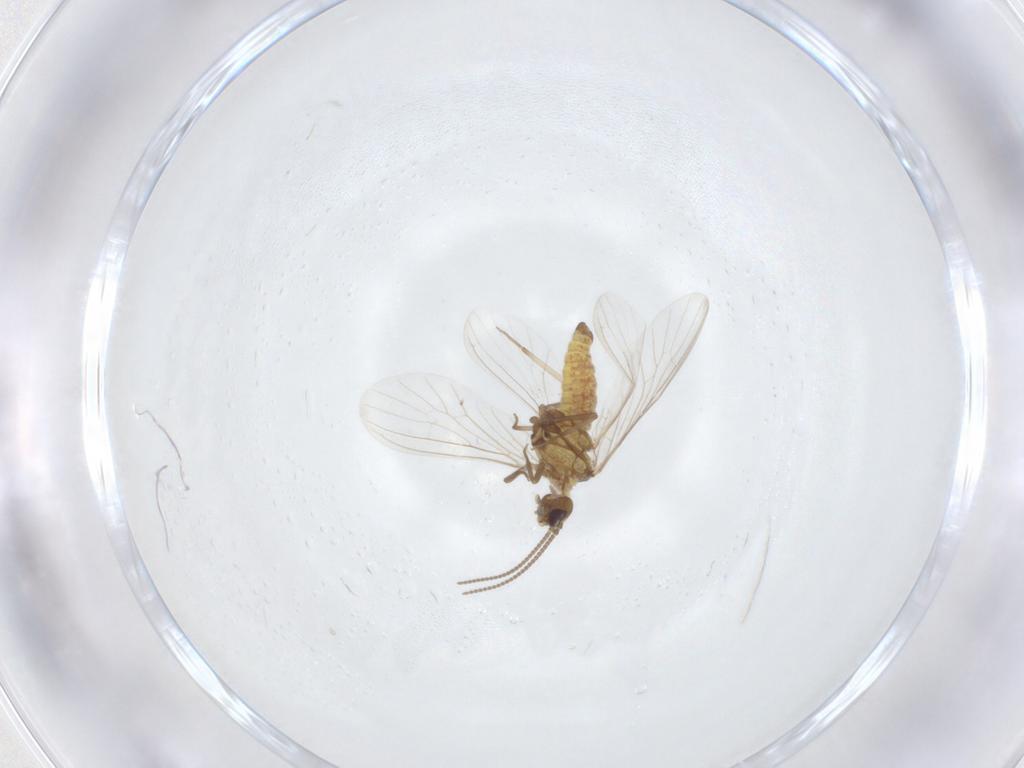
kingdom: Animalia
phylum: Arthropoda
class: Insecta
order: Neuroptera
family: Coniopterygidae
